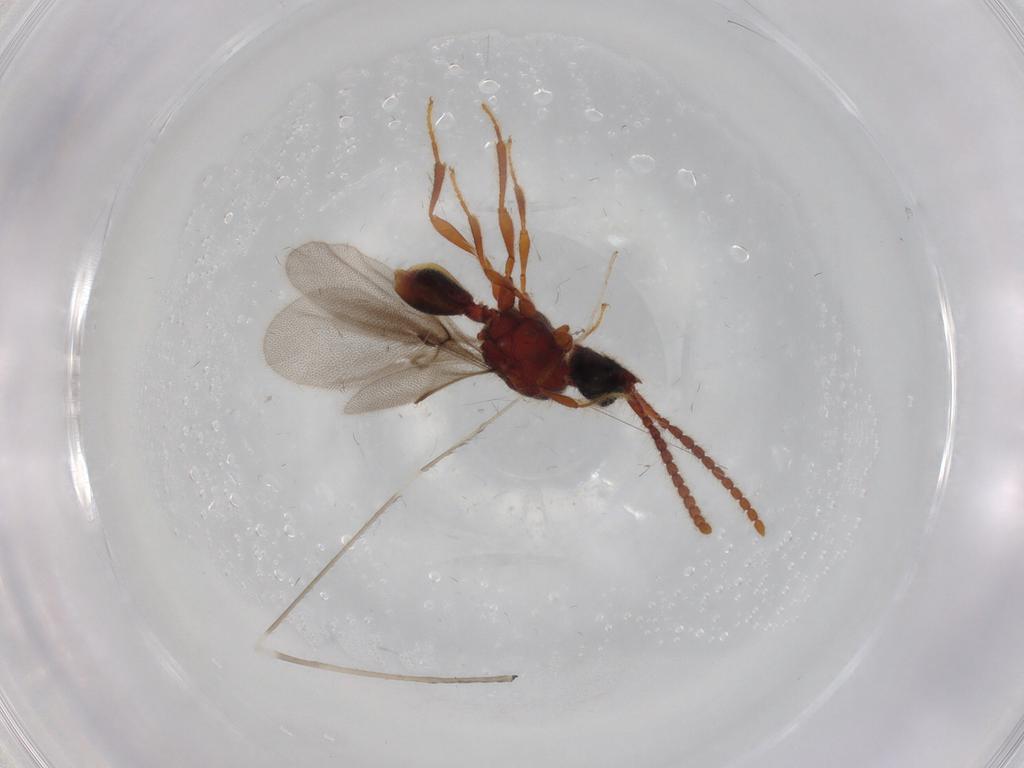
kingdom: Animalia
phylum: Arthropoda
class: Insecta
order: Hymenoptera
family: Diapriidae
